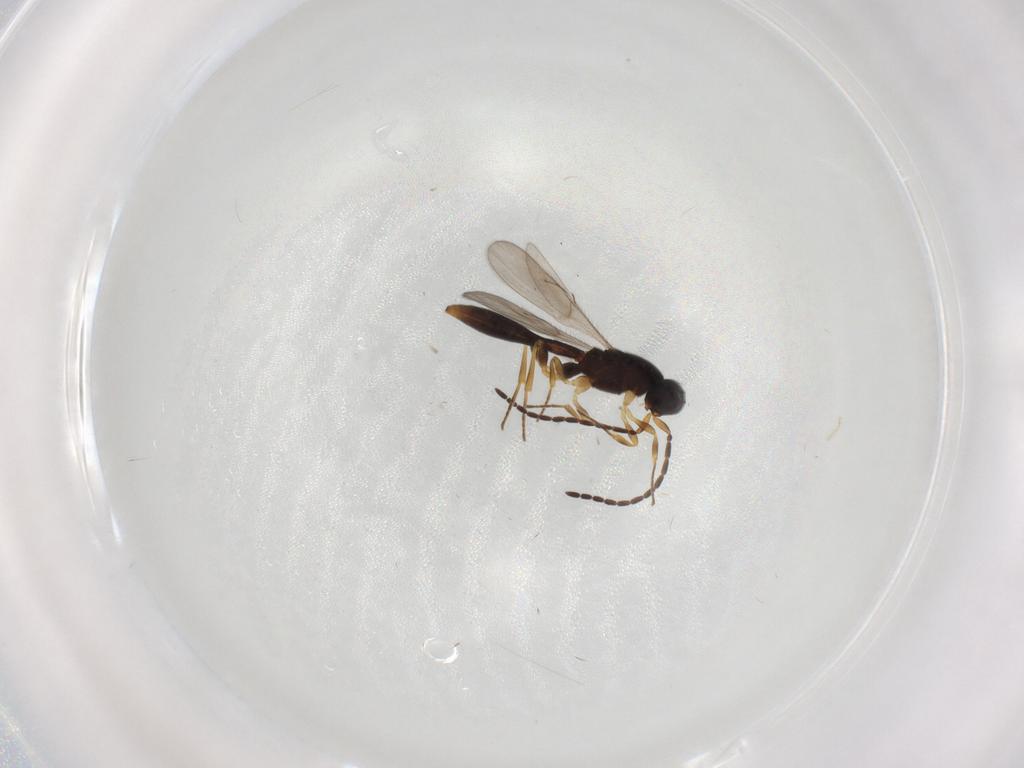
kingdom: Animalia
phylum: Arthropoda
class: Insecta
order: Hymenoptera
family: Scelionidae
